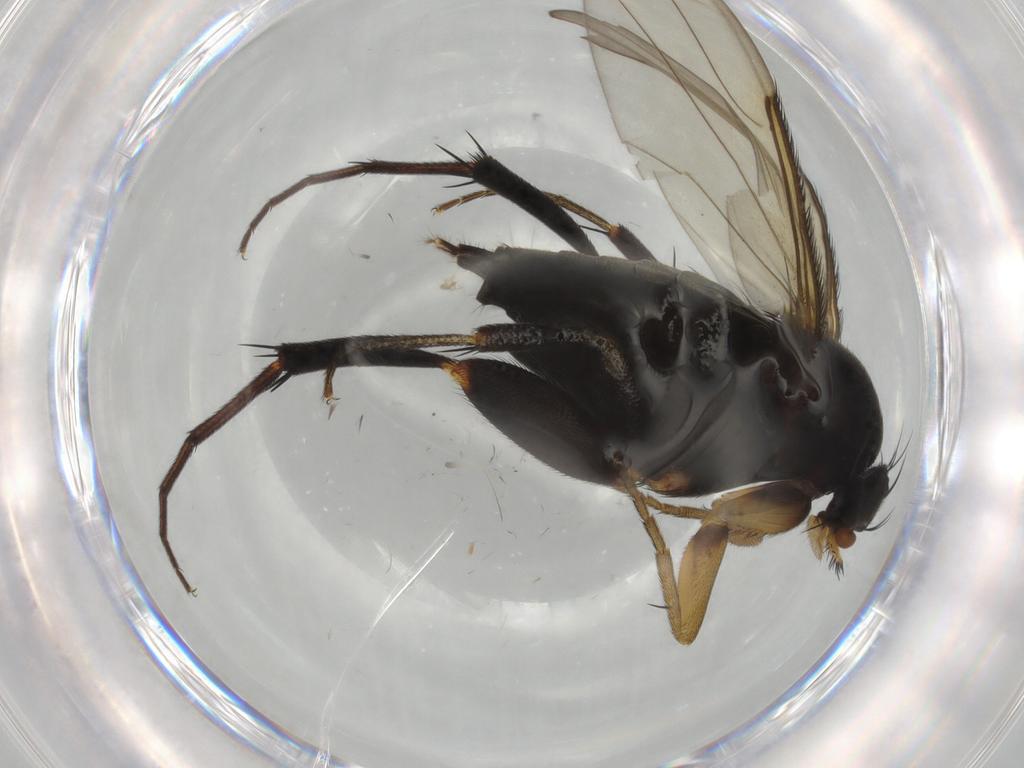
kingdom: Animalia
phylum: Arthropoda
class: Insecta
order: Diptera
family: Phoridae
